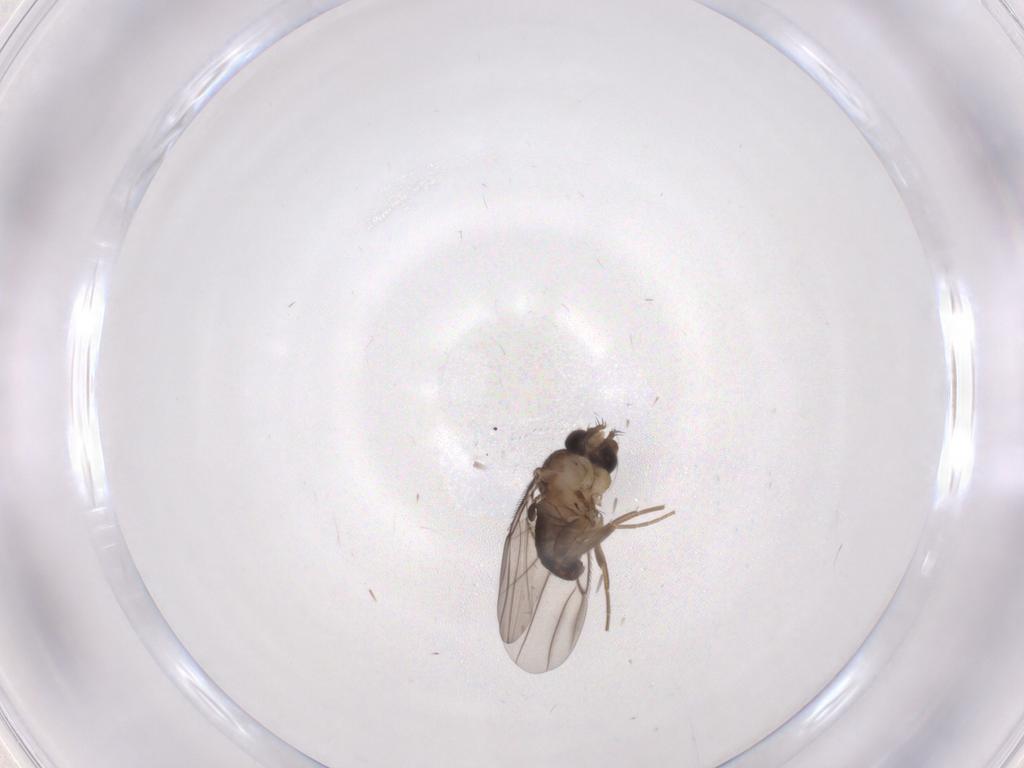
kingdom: Animalia
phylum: Arthropoda
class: Insecta
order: Diptera
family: Phoridae
